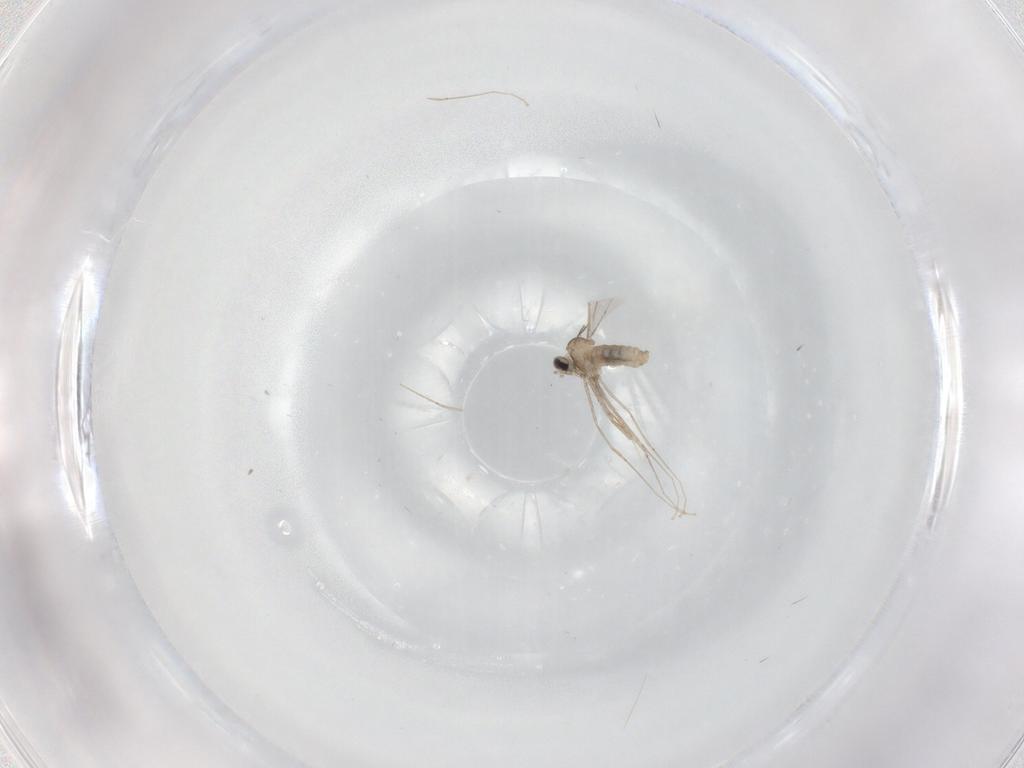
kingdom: Animalia
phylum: Arthropoda
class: Insecta
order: Diptera
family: Cecidomyiidae
